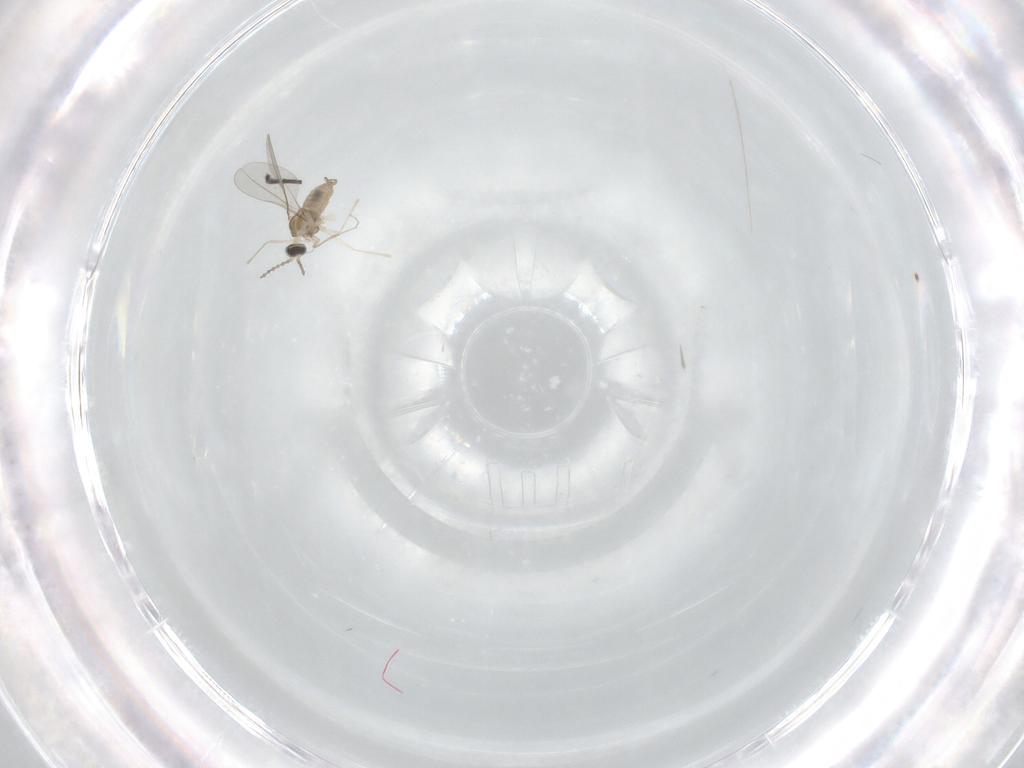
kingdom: Animalia
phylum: Arthropoda
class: Insecta
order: Diptera
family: Cecidomyiidae
